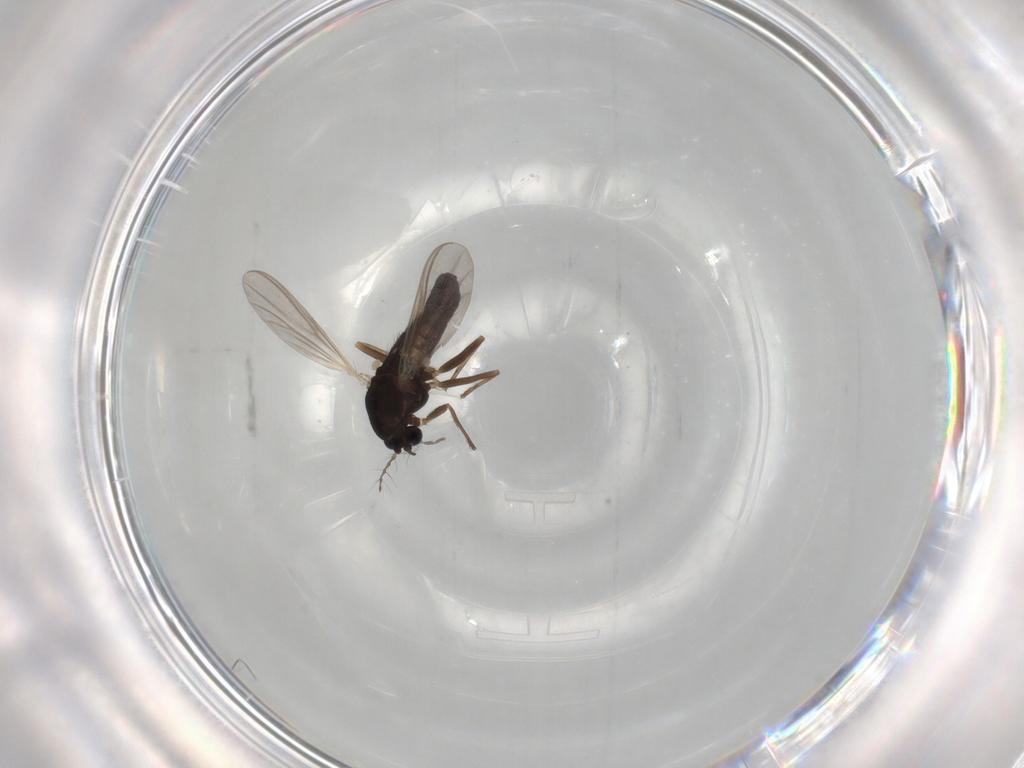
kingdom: Animalia
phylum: Arthropoda
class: Insecta
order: Diptera
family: Chironomidae
